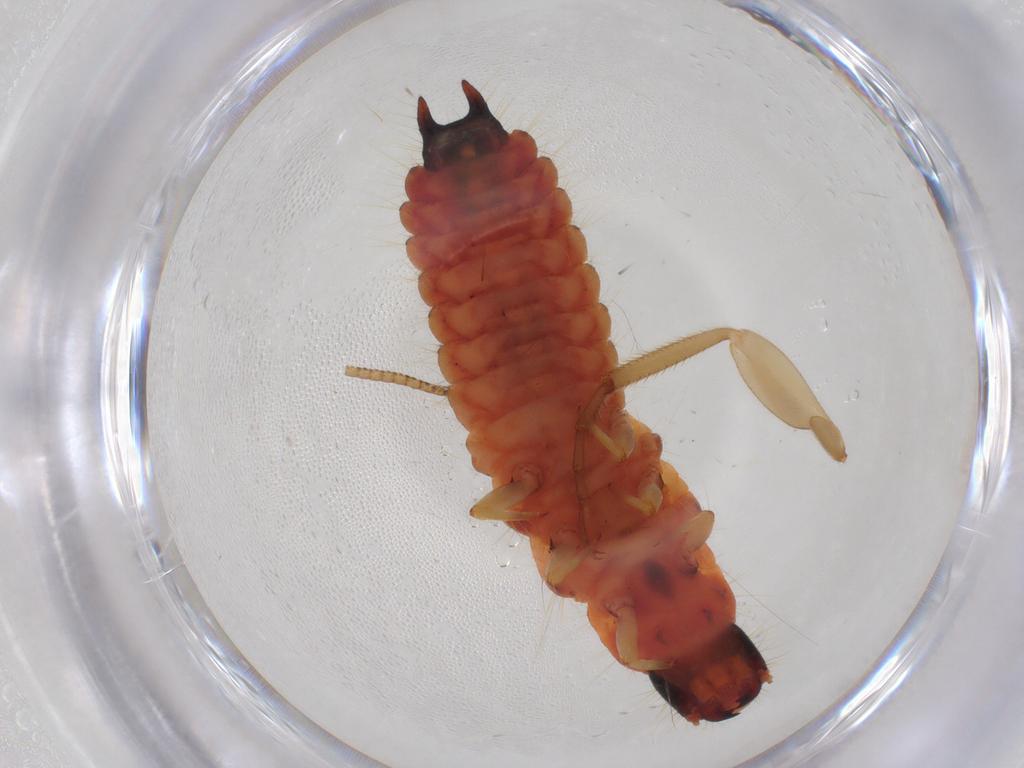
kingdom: Animalia
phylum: Arthropoda
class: Insecta
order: Coleoptera
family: Melyridae
